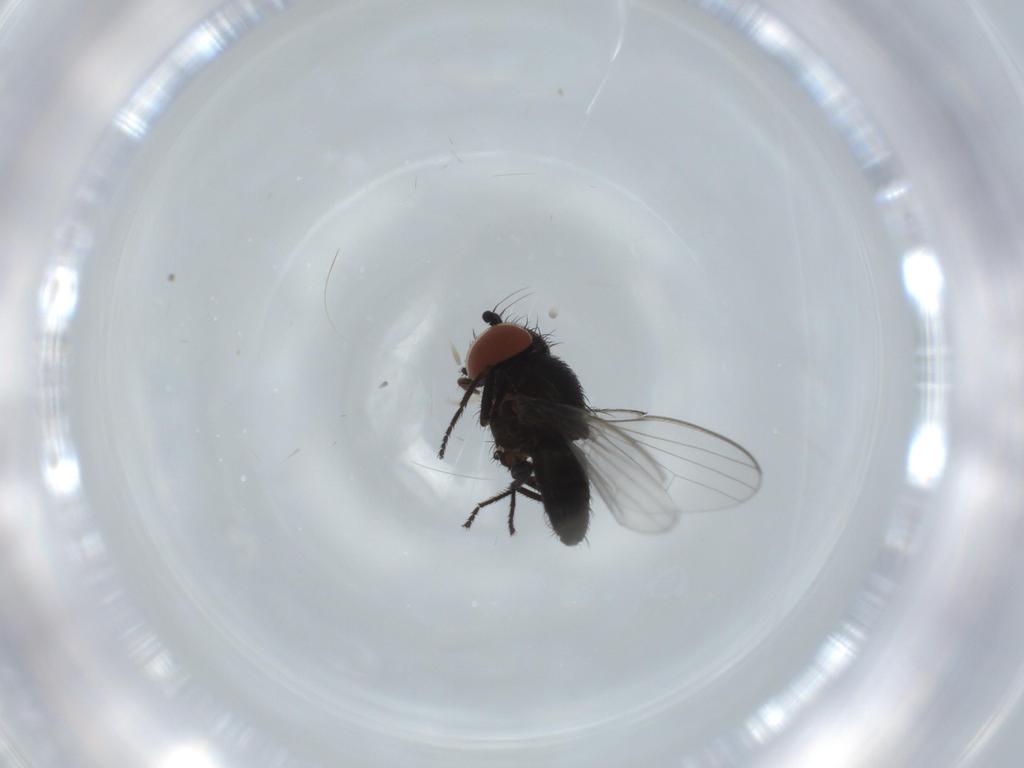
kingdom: Animalia
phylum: Arthropoda
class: Insecta
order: Diptera
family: Milichiidae
